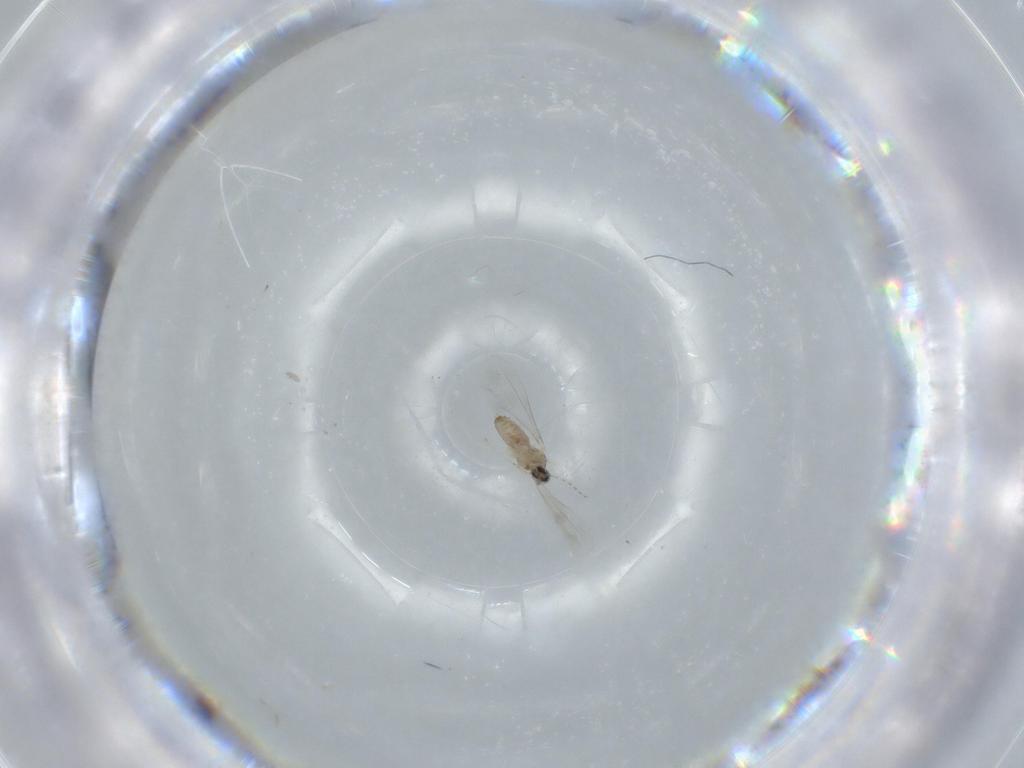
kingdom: Animalia
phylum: Arthropoda
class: Insecta
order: Diptera
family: Cecidomyiidae
